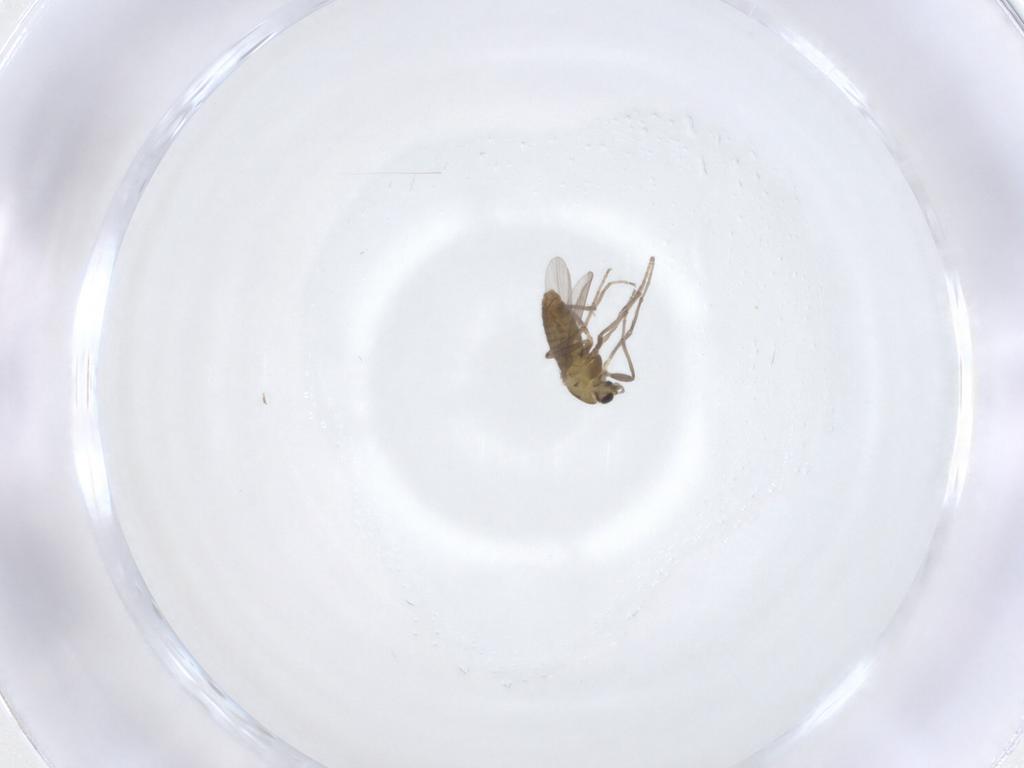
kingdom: Animalia
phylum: Arthropoda
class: Insecta
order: Diptera
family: Chironomidae
